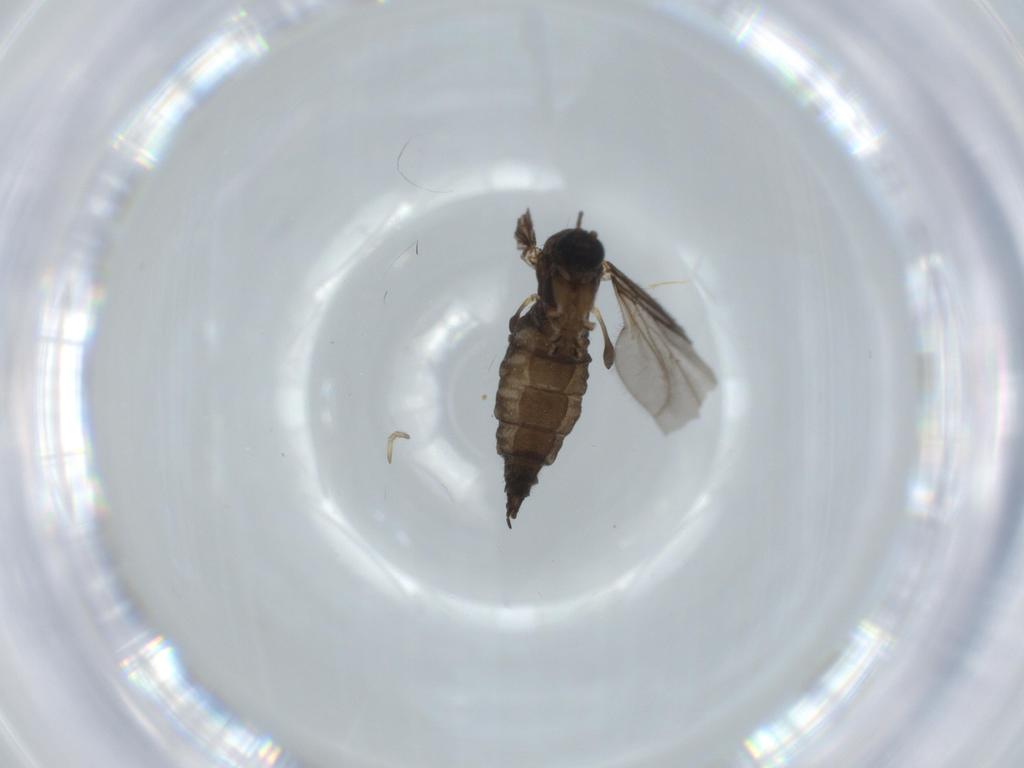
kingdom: Animalia
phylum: Arthropoda
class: Insecta
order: Diptera
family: Sciaridae
